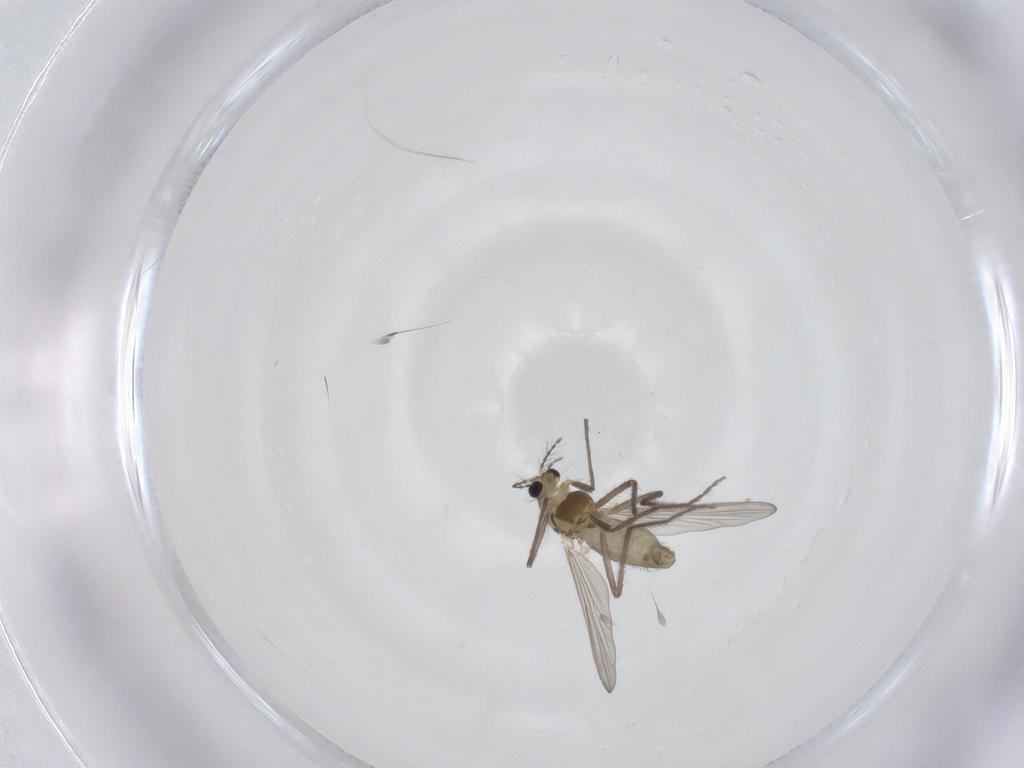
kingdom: Animalia
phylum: Arthropoda
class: Insecta
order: Diptera
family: Chironomidae
